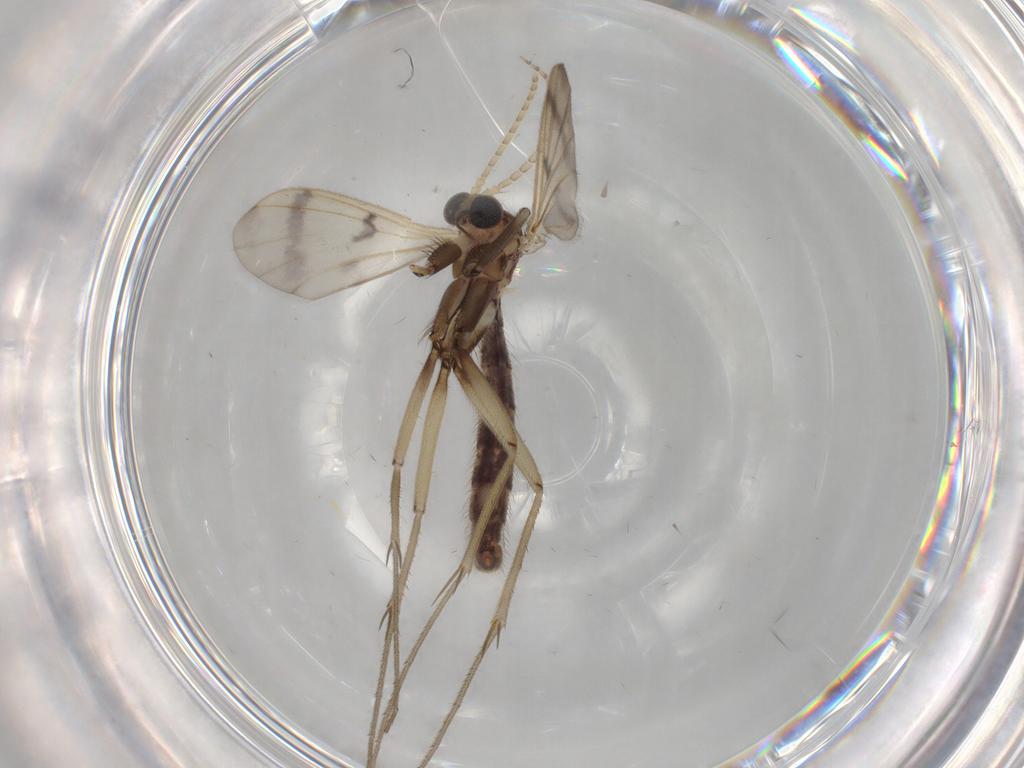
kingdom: Animalia
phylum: Arthropoda
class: Insecta
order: Diptera
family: Mycetophilidae
